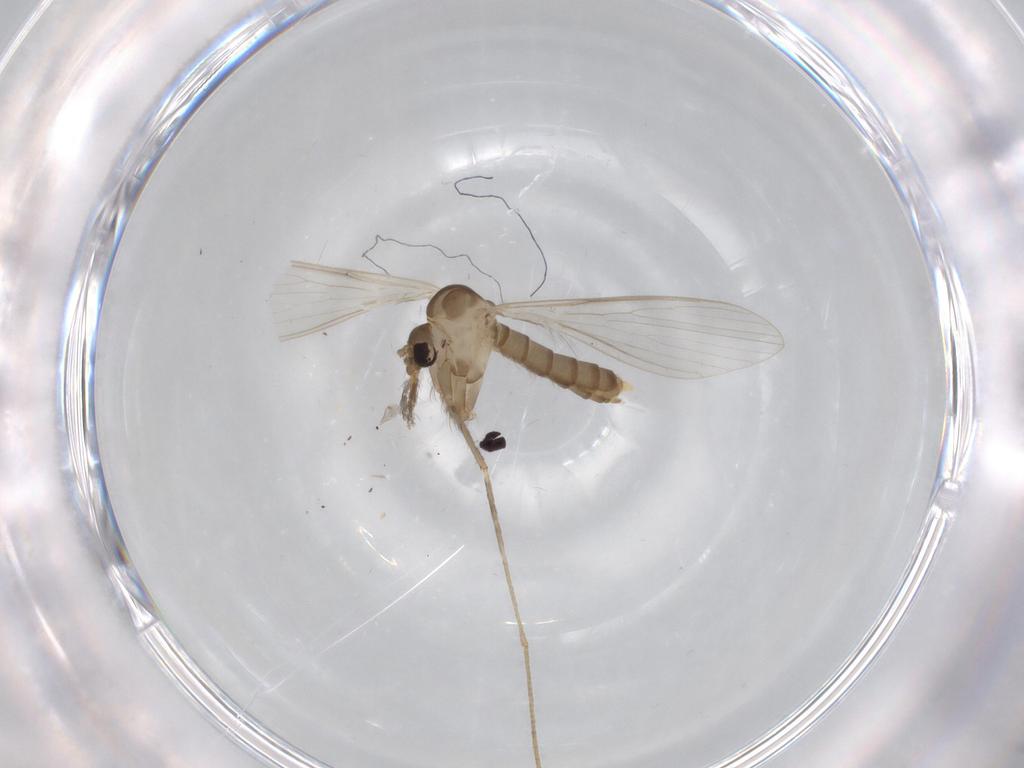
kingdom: Animalia
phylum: Arthropoda
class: Insecta
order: Diptera
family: Psychodidae
